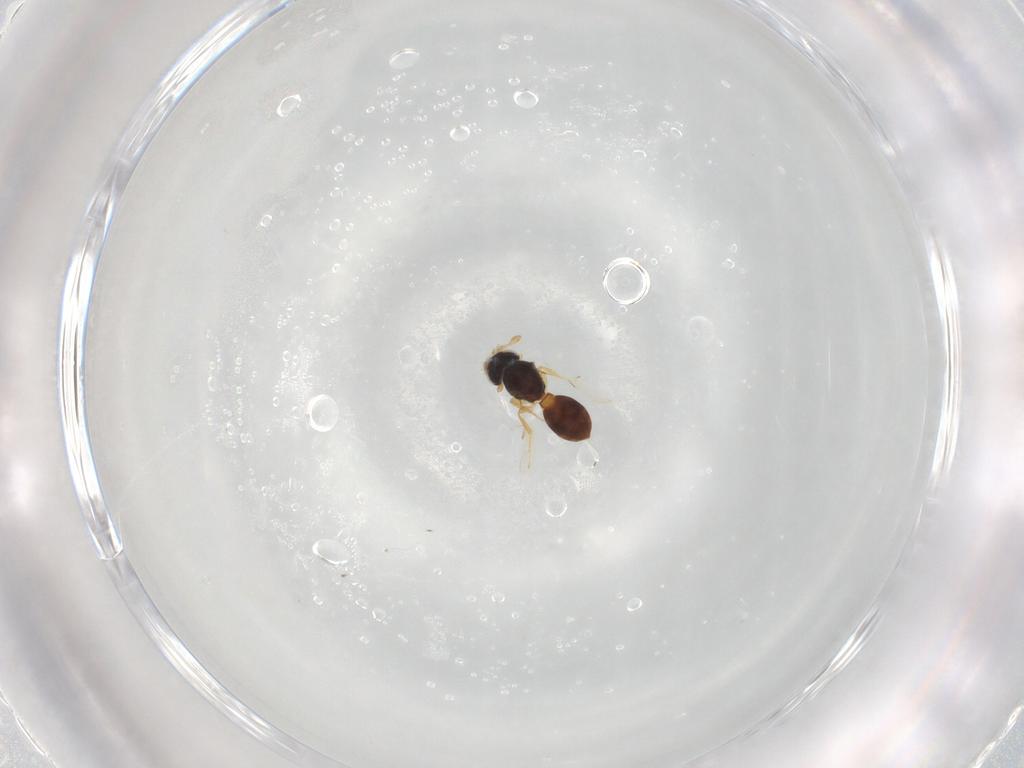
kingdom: Animalia
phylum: Arthropoda
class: Insecta
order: Hymenoptera
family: Scelionidae
